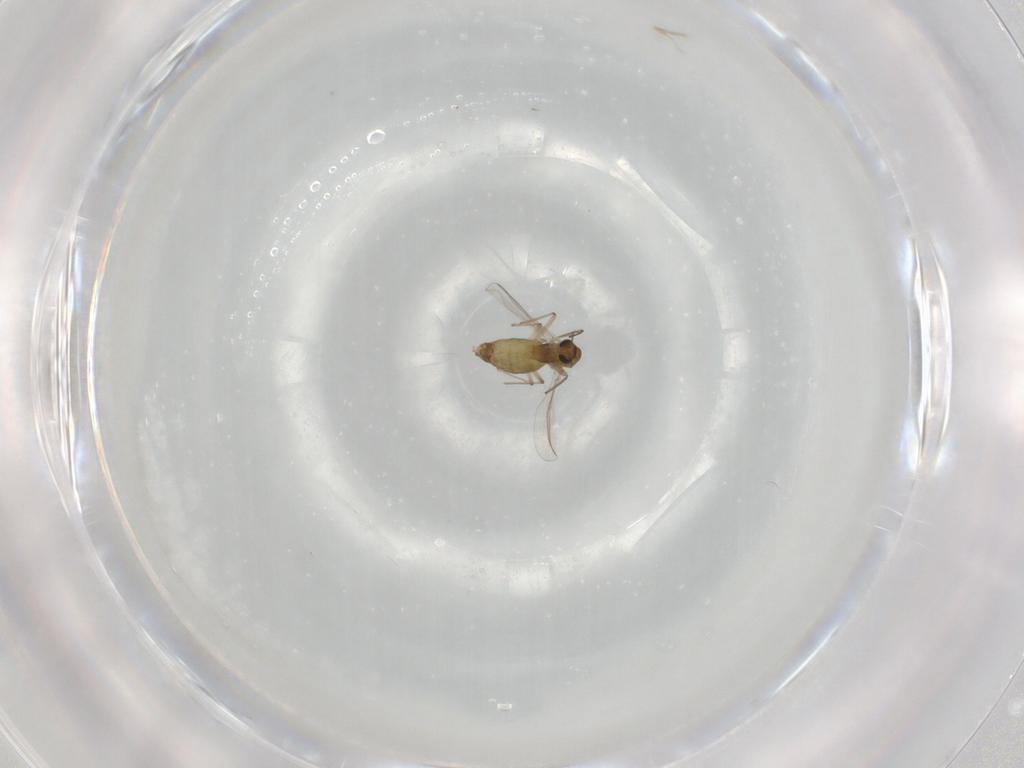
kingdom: Animalia
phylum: Arthropoda
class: Insecta
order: Diptera
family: Chironomidae
